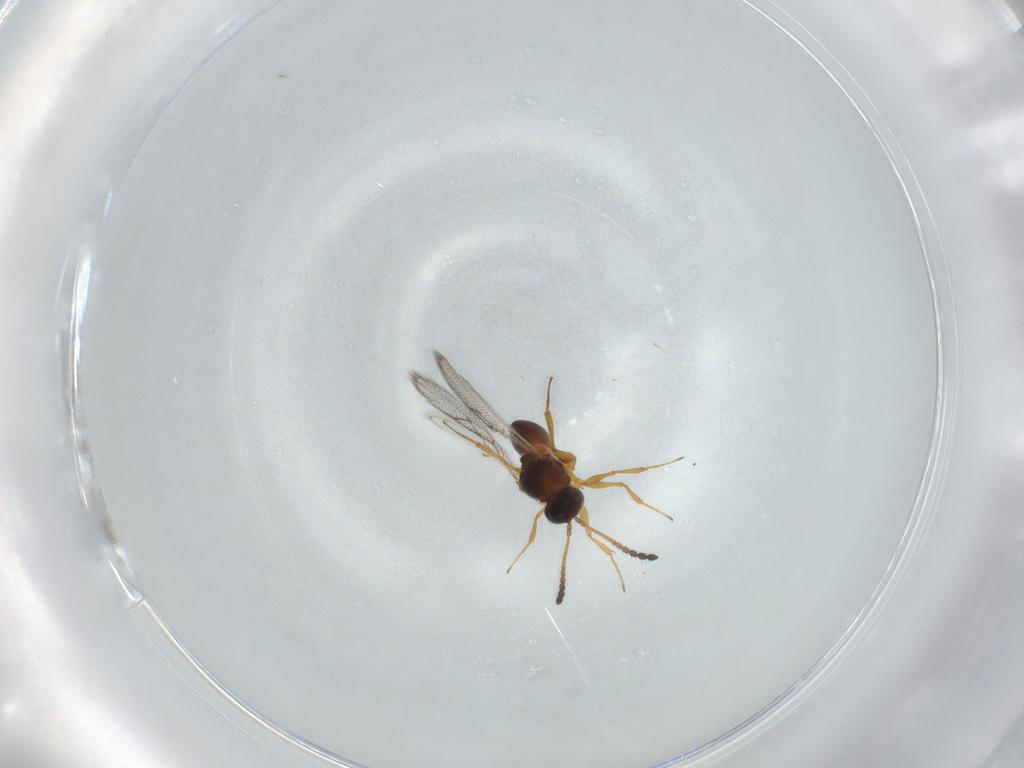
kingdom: Animalia
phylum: Arthropoda
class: Insecta
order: Hymenoptera
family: Figitidae
